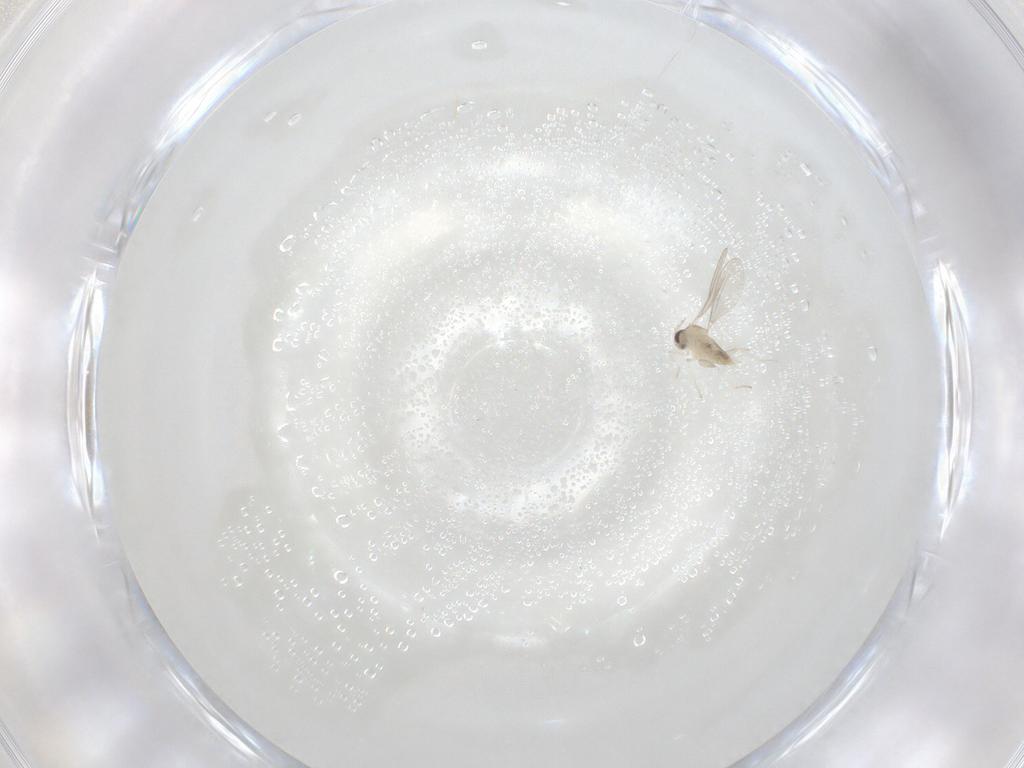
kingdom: Animalia
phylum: Arthropoda
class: Insecta
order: Diptera
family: Cecidomyiidae
